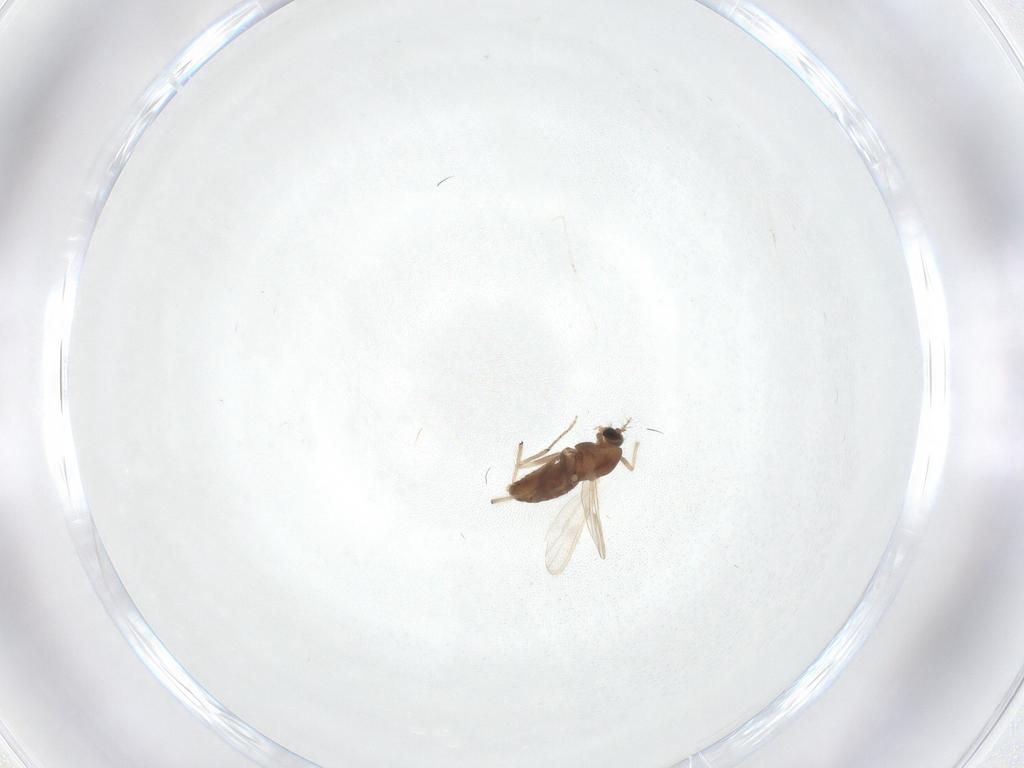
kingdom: Animalia
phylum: Arthropoda
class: Insecta
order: Diptera
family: Chironomidae
